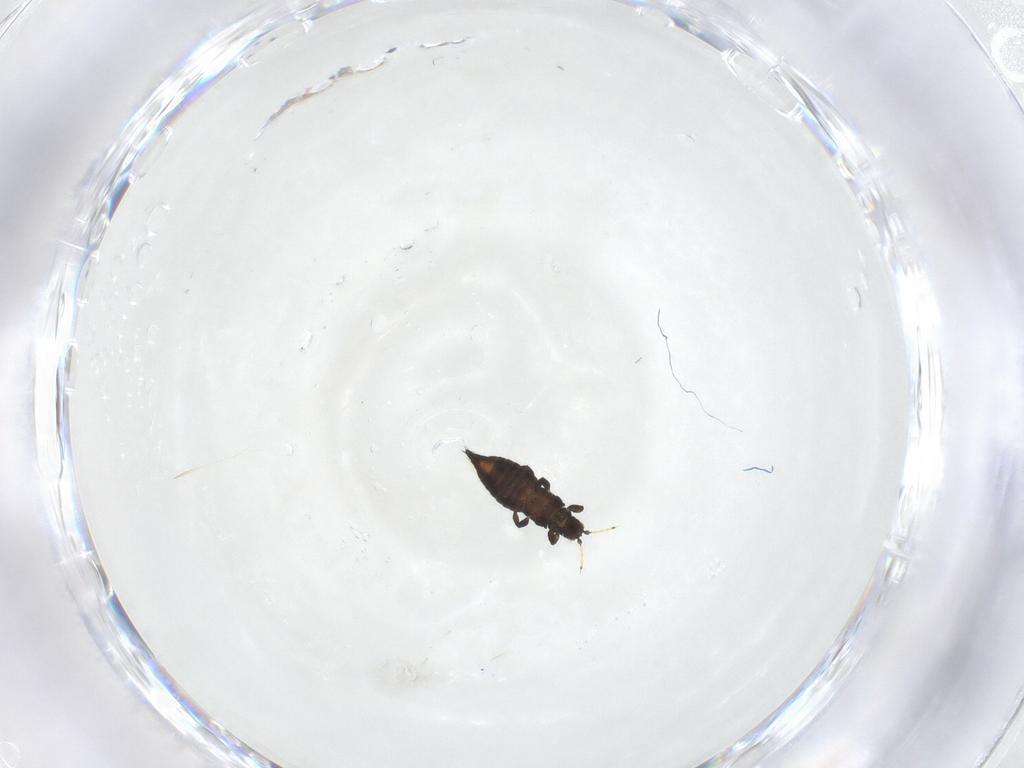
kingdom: Animalia
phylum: Arthropoda
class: Insecta
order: Thysanoptera
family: Thripidae
